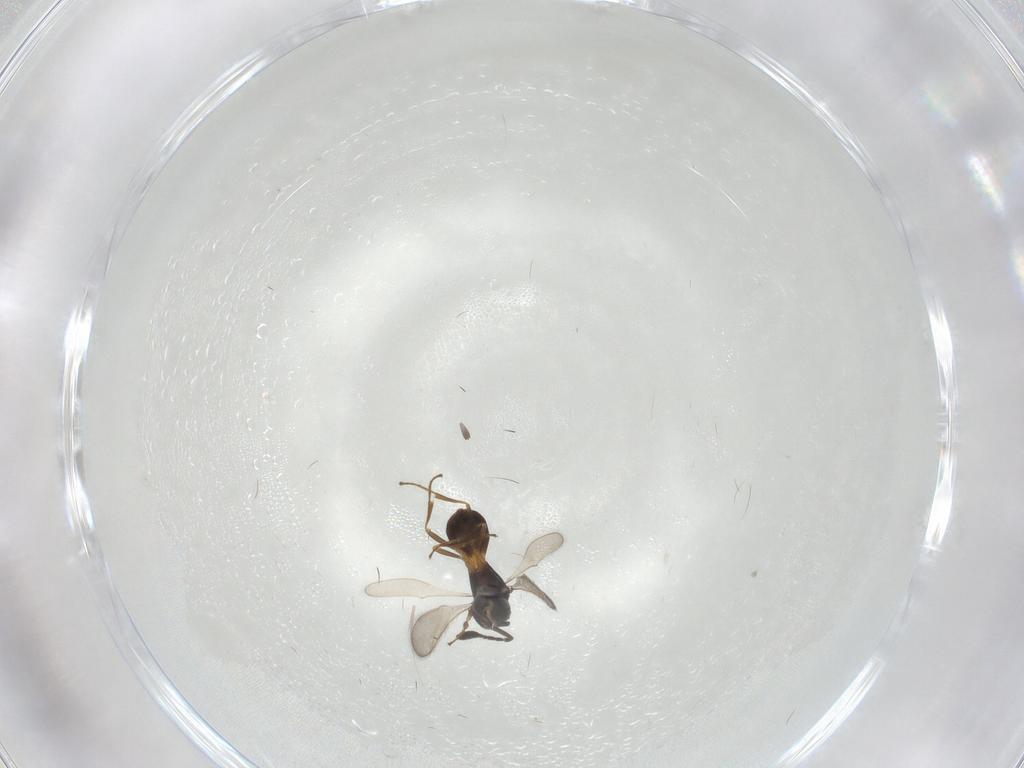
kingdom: Animalia
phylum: Arthropoda
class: Insecta
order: Hymenoptera
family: Scelionidae
